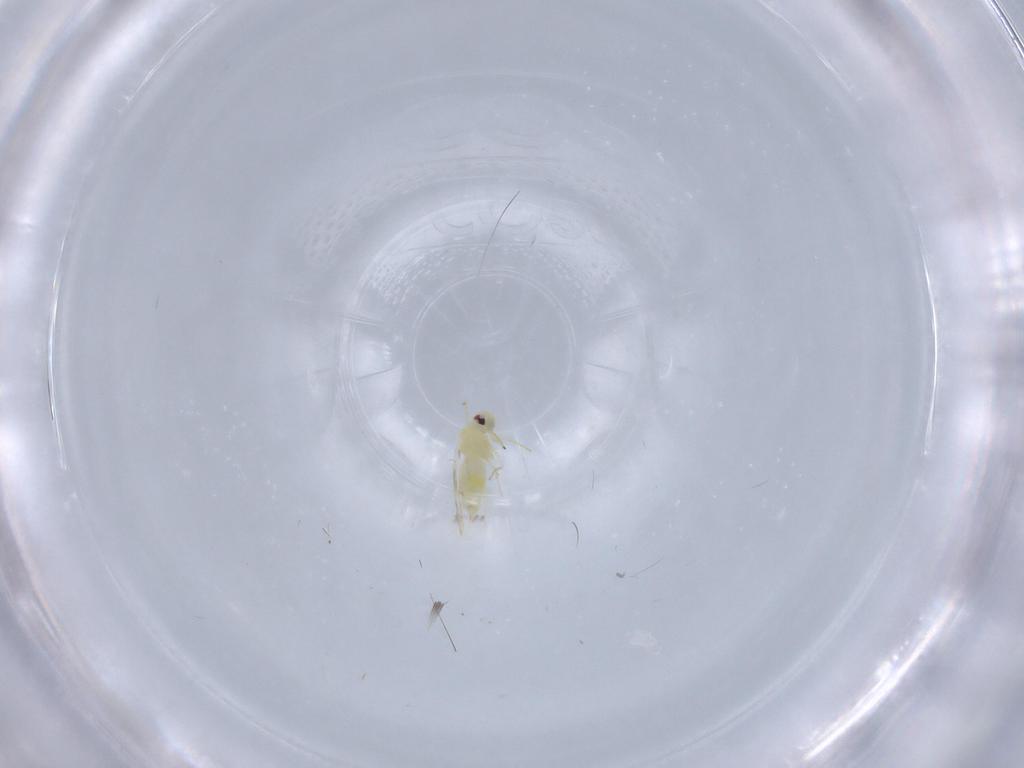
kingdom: Animalia
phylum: Arthropoda
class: Insecta
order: Hemiptera
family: Aleyrodidae
